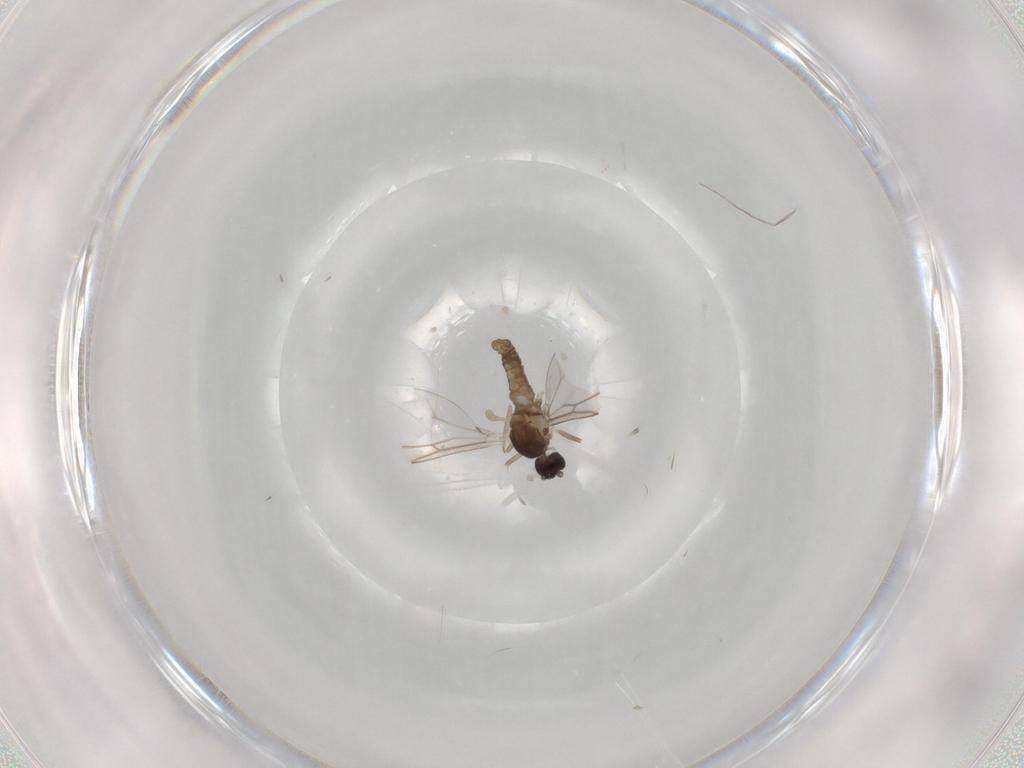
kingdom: Animalia
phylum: Arthropoda
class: Insecta
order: Diptera
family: Cecidomyiidae
